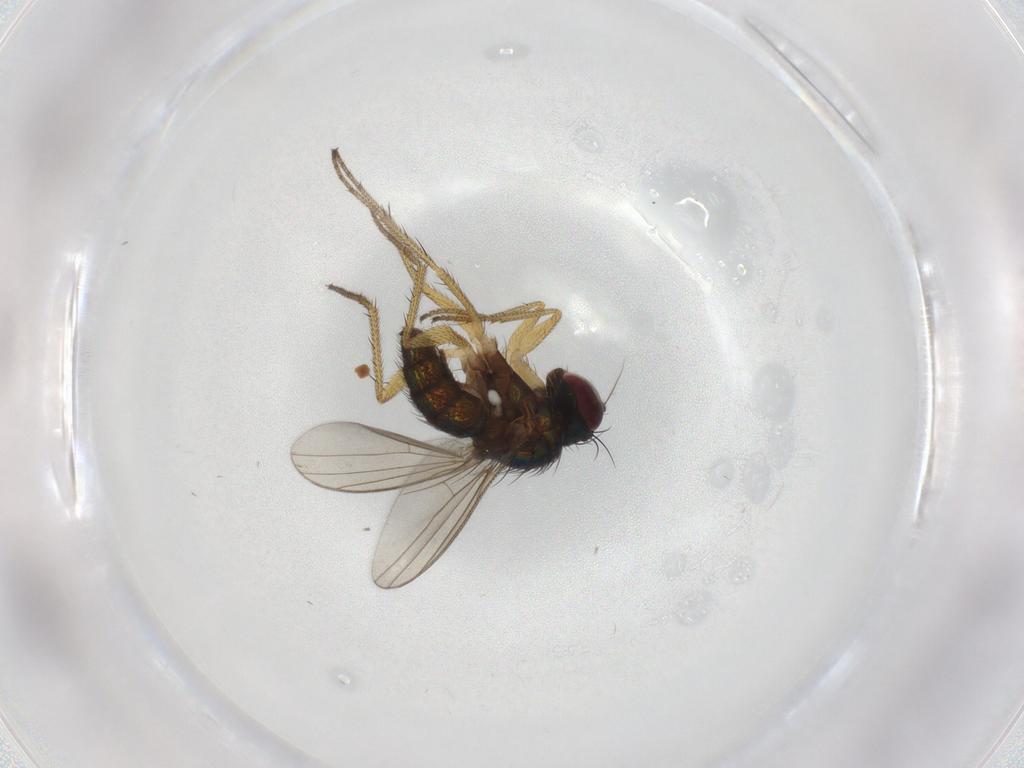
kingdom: Animalia
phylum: Arthropoda
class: Insecta
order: Diptera
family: Dolichopodidae
